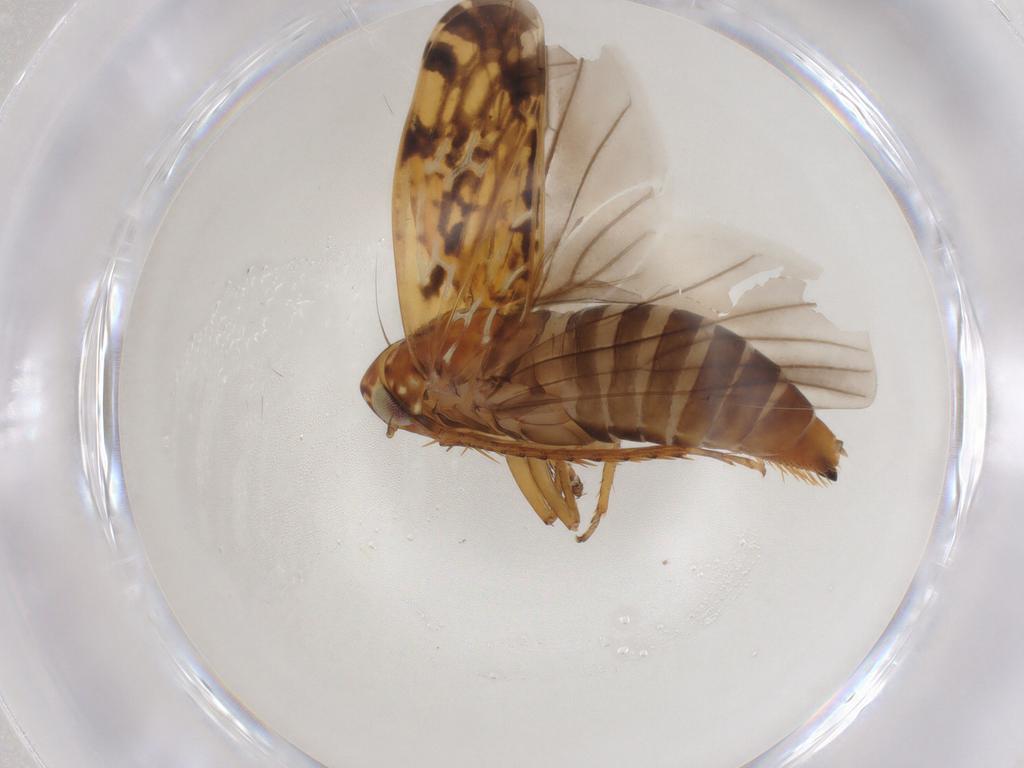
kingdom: Animalia
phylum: Arthropoda
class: Insecta
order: Hemiptera
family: Cicadellidae
